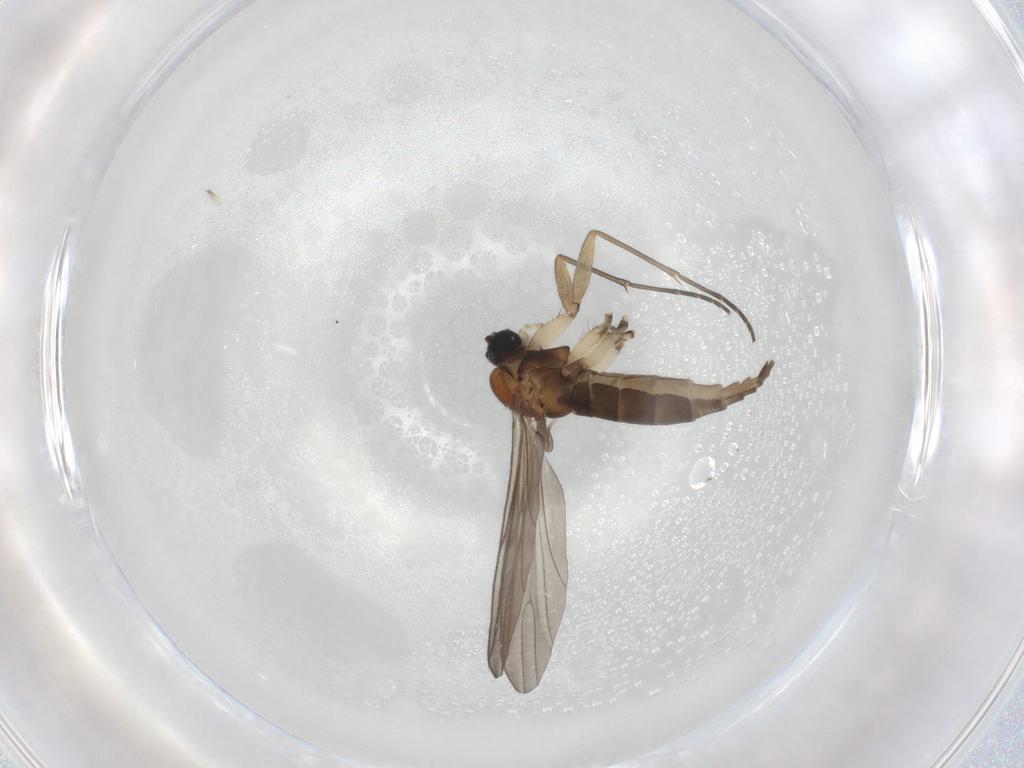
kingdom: Animalia
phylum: Arthropoda
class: Insecta
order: Diptera
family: Sciaridae
